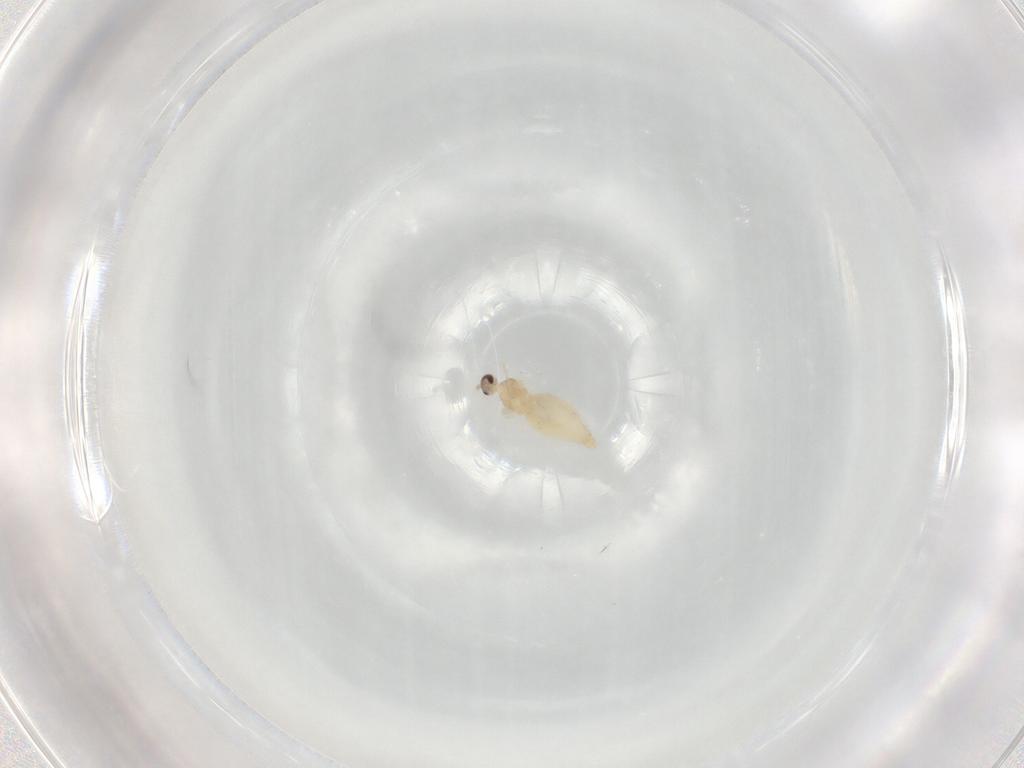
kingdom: Animalia
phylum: Arthropoda
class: Insecta
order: Diptera
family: Cecidomyiidae
